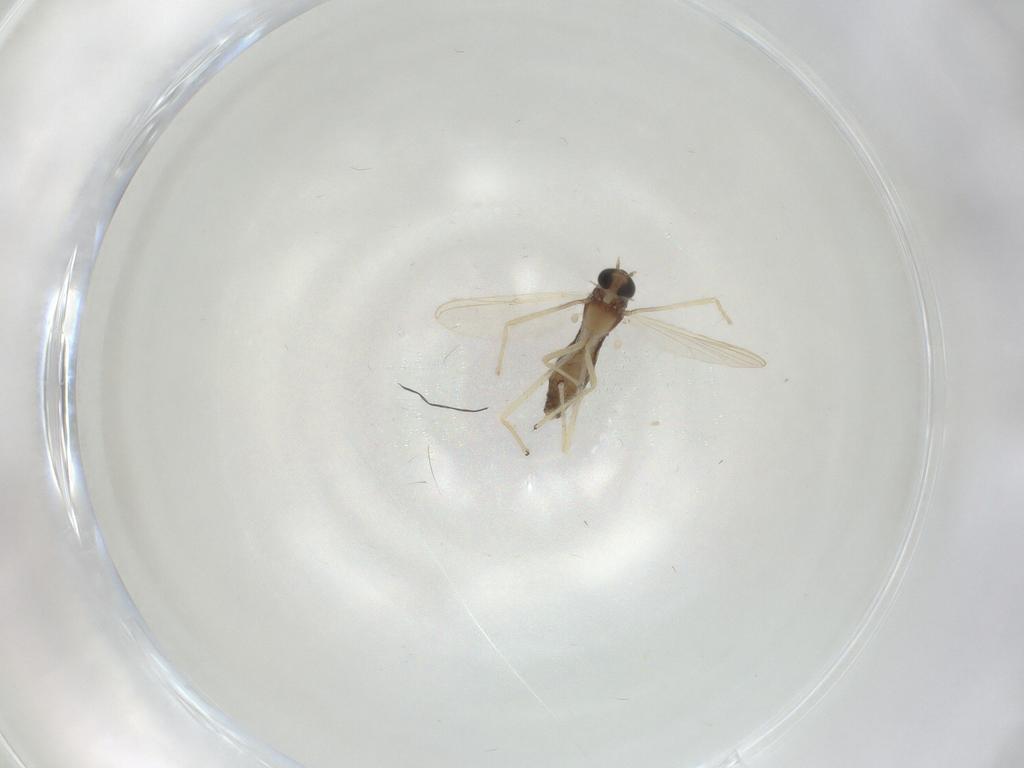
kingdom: Animalia
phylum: Arthropoda
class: Insecta
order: Diptera
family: Chironomidae
